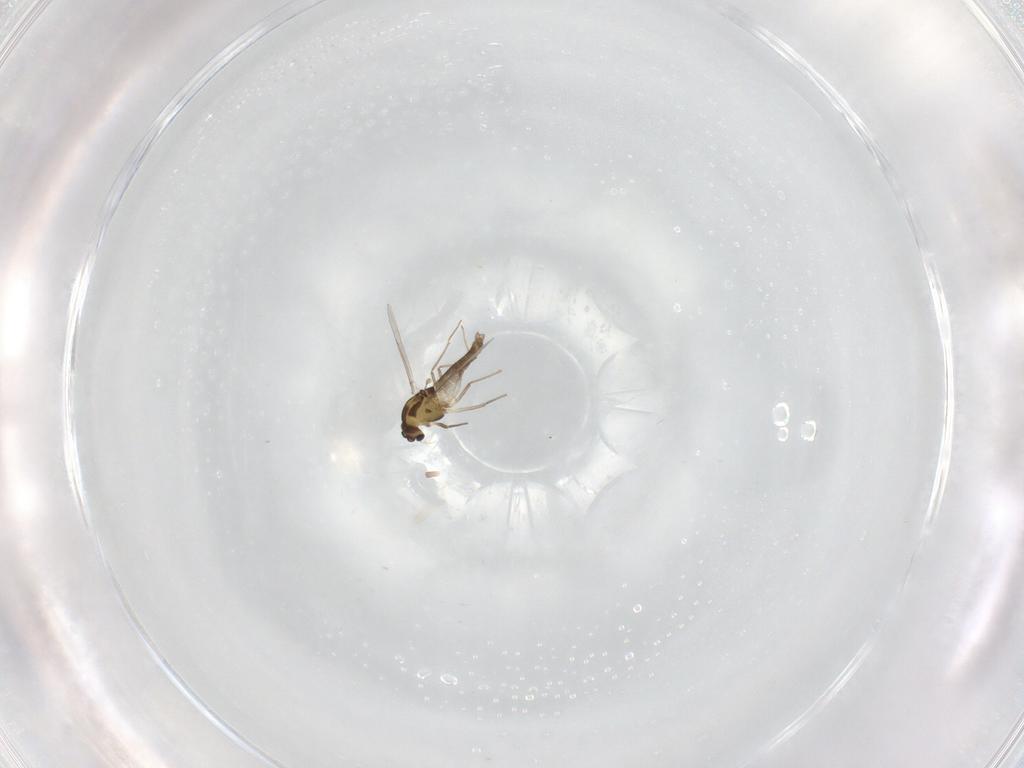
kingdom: Animalia
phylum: Arthropoda
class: Insecta
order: Diptera
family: Chironomidae
